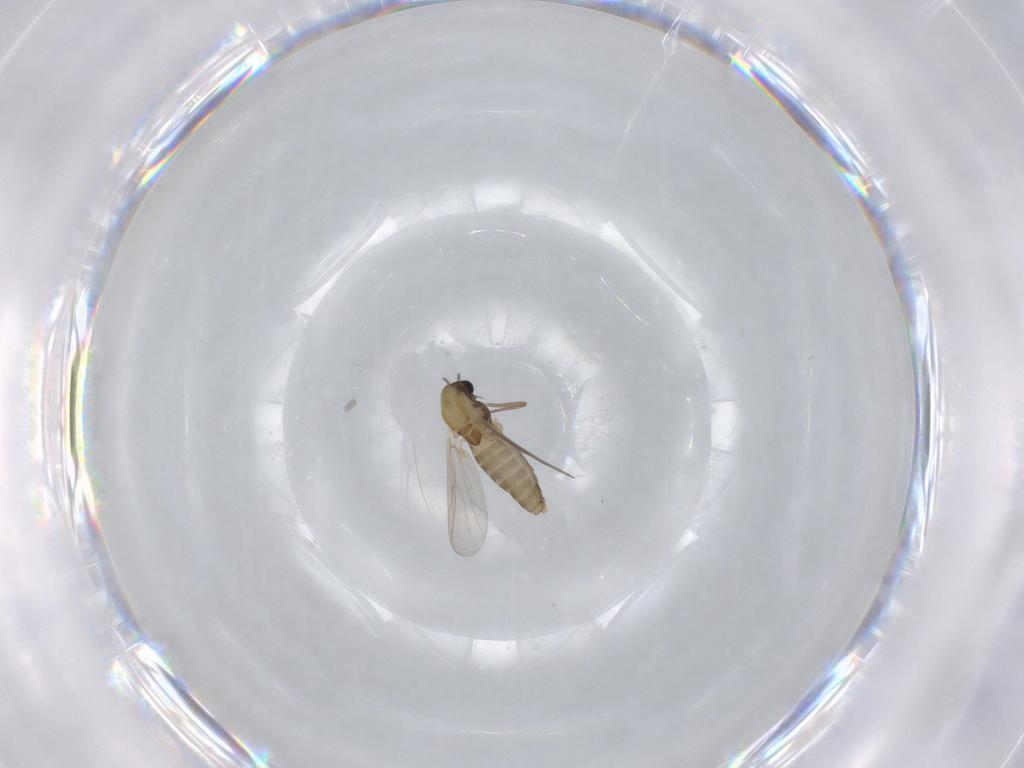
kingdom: Animalia
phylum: Arthropoda
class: Insecta
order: Diptera
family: Chironomidae
